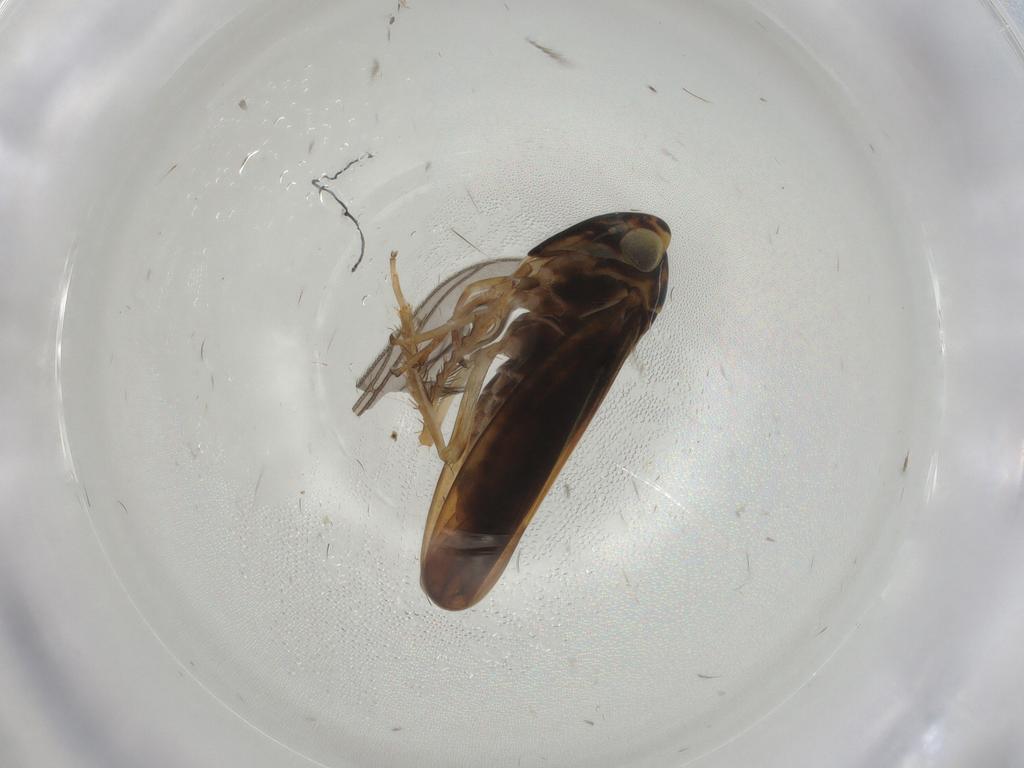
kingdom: Animalia
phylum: Arthropoda
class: Insecta
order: Hemiptera
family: Cicadellidae
